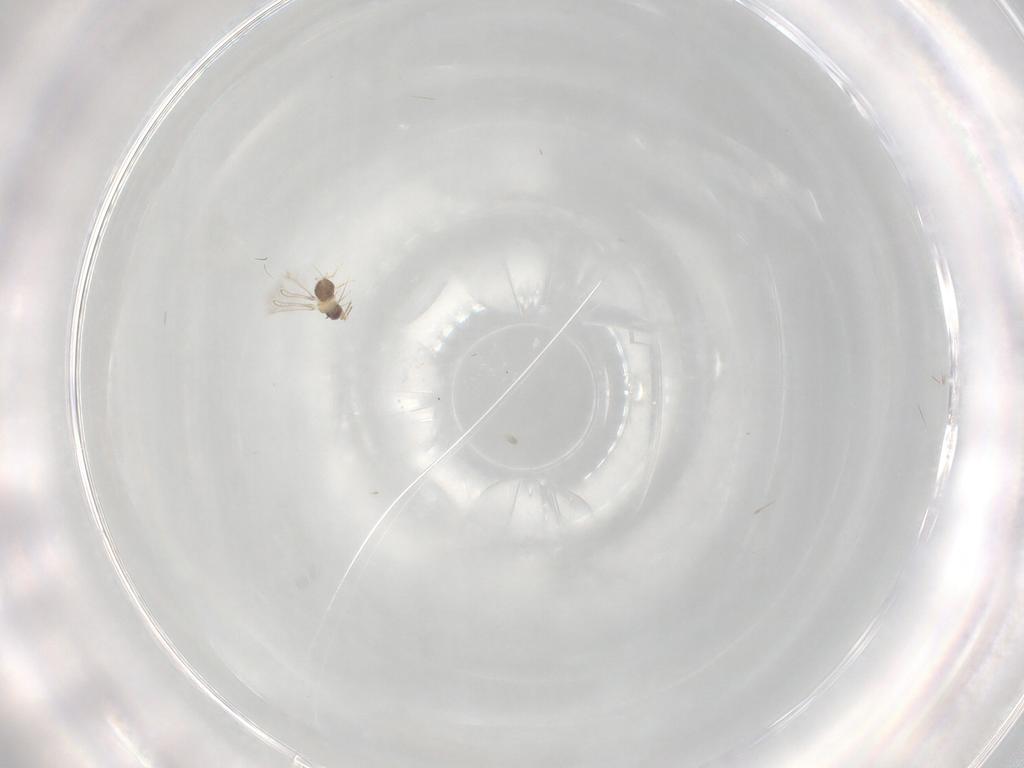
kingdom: Animalia
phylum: Arthropoda
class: Insecta
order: Hymenoptera
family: Mymaridae
